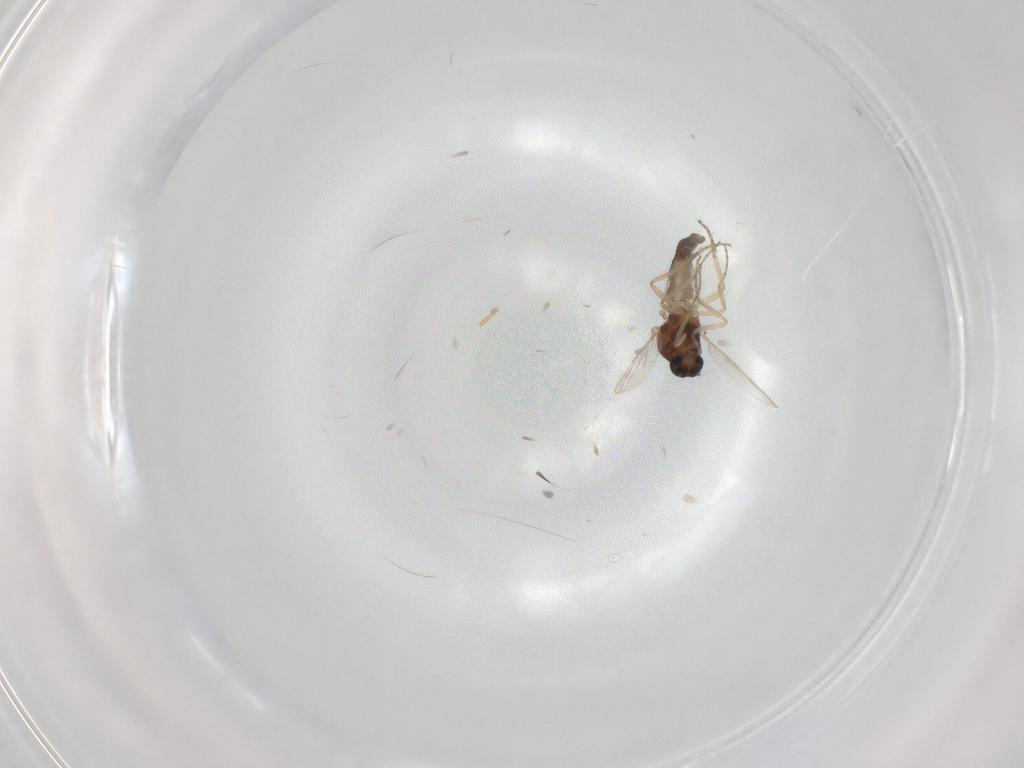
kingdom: Animalia
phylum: Arthropoda
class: Insecta
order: Diptera
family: Ceratopogonidae
